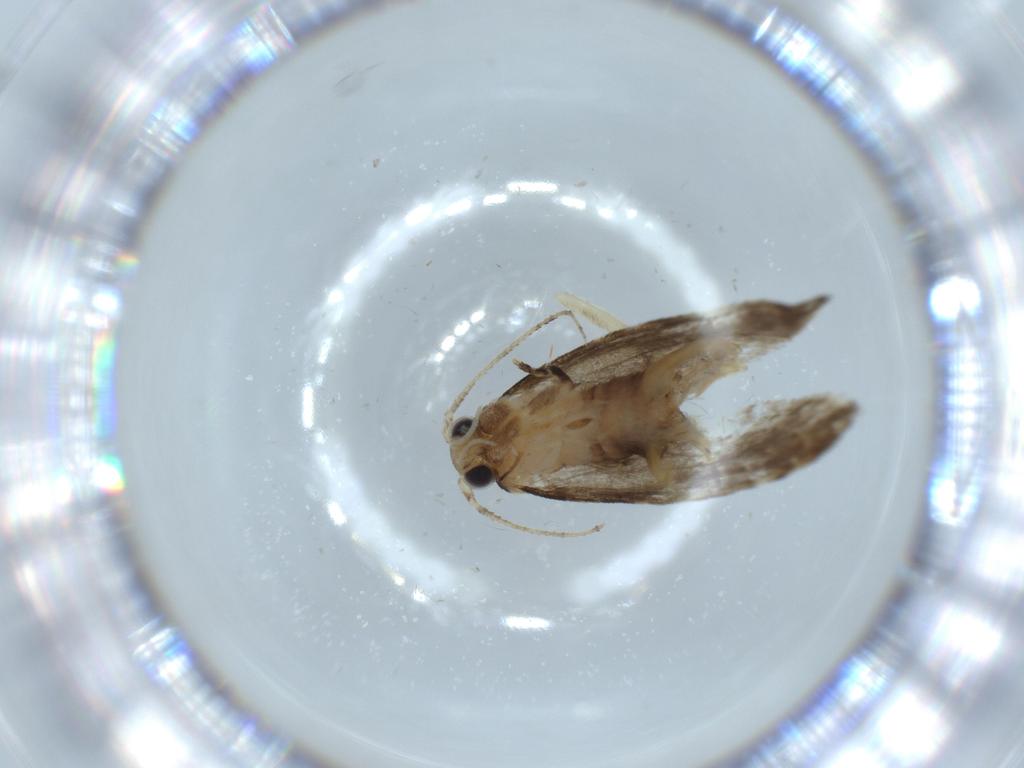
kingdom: Animalia
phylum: Arthropoda
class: Insecta
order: Lepidoptera
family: Tineidae
